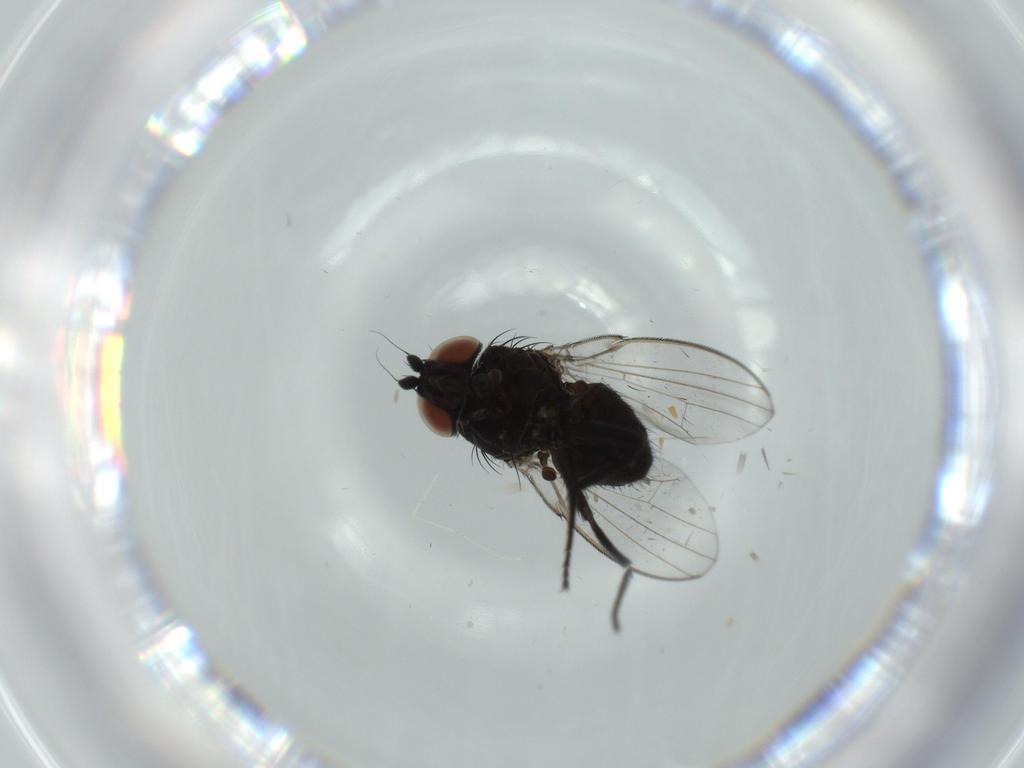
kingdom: Animalia
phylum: Arthropoda
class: Insecta
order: Diptera
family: Milichiidae
